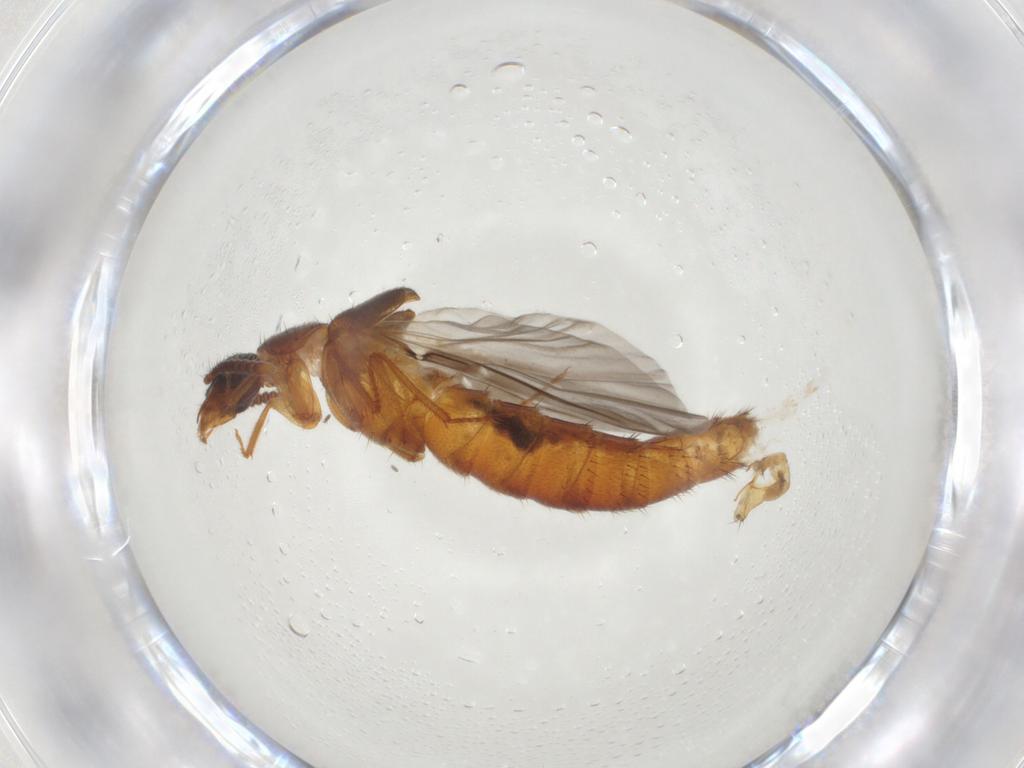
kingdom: Animalia
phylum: Arthropoda
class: Insecta
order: Coleoptera
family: Staphylinidae
